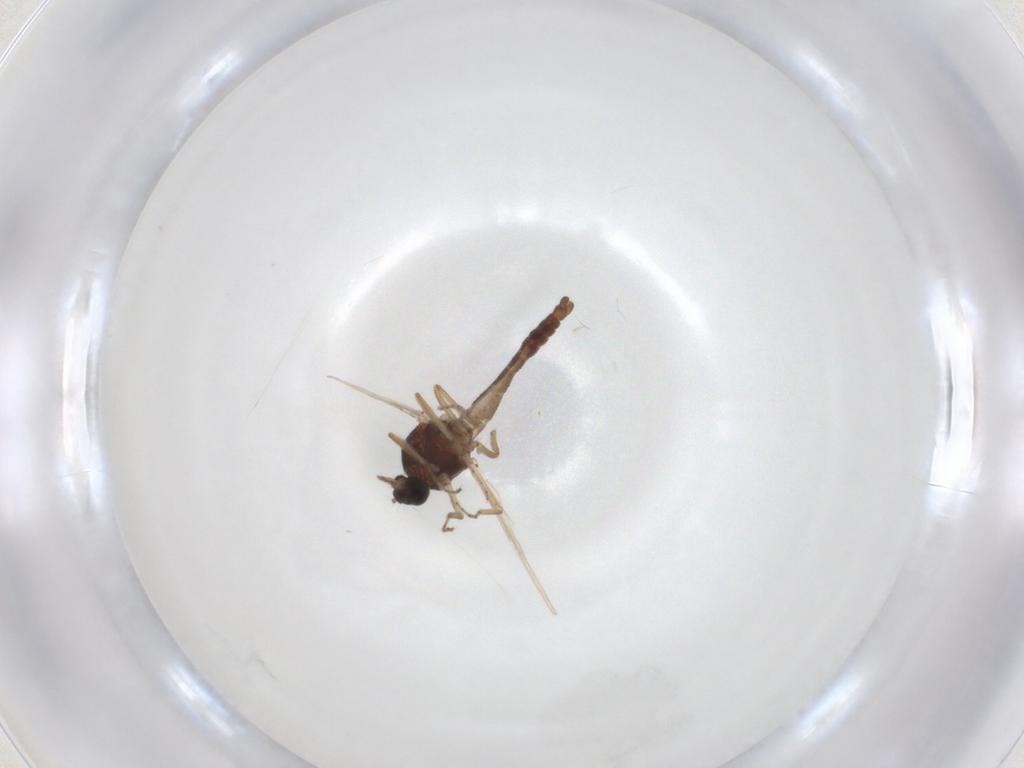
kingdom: Animalia
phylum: Arthropoda
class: Insecta
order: Diptera
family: Ceratopogonidae
